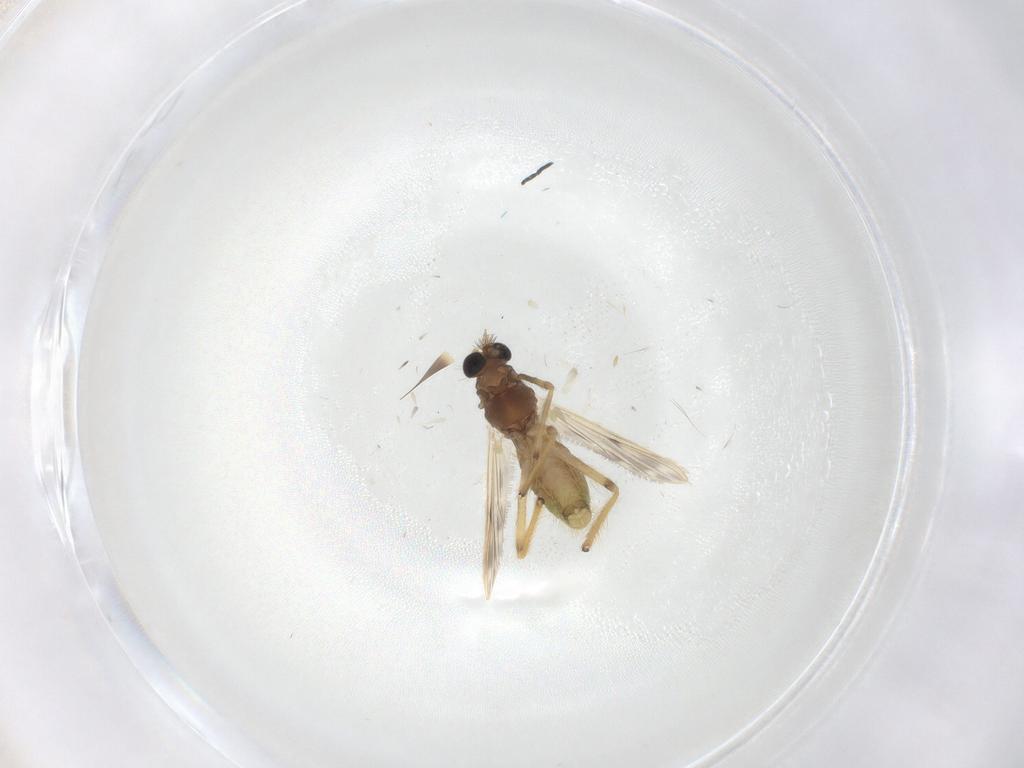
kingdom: Animalia
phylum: Arthropoda
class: Insecta
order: Diptera
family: Chironomidae
